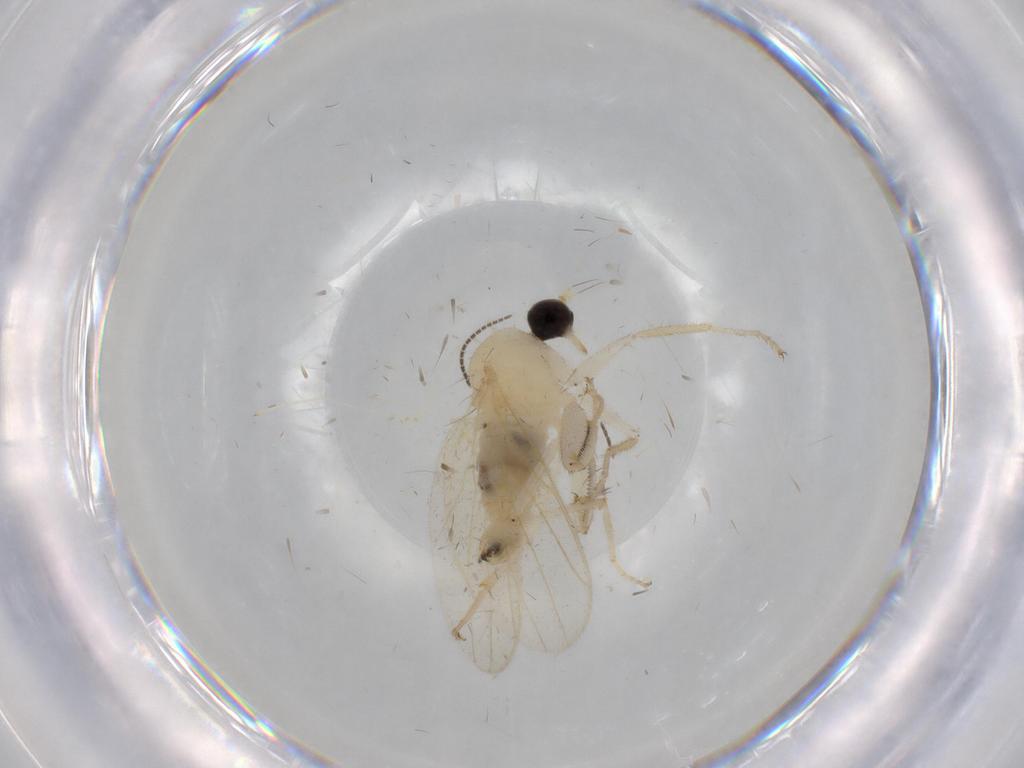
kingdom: Animalia
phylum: Arthropoda
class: Insecta
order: Diptera
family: Hybotidae
